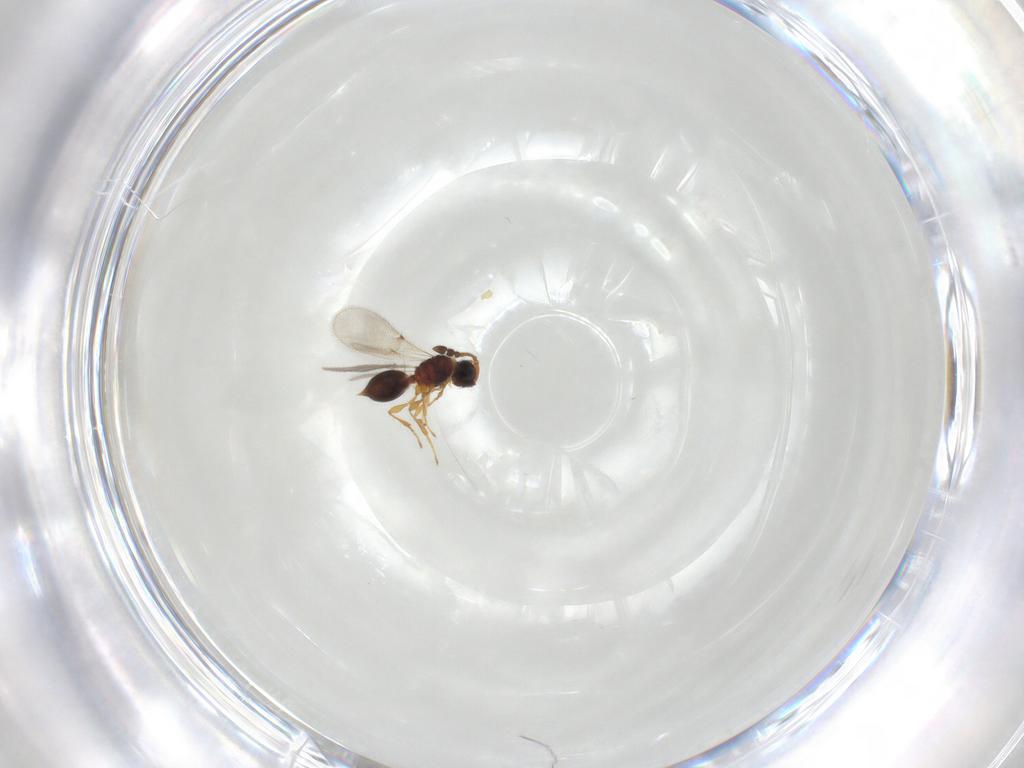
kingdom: Animalia
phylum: Arthropoda
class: Insecta
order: Hymenoptera
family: Diapriidae
